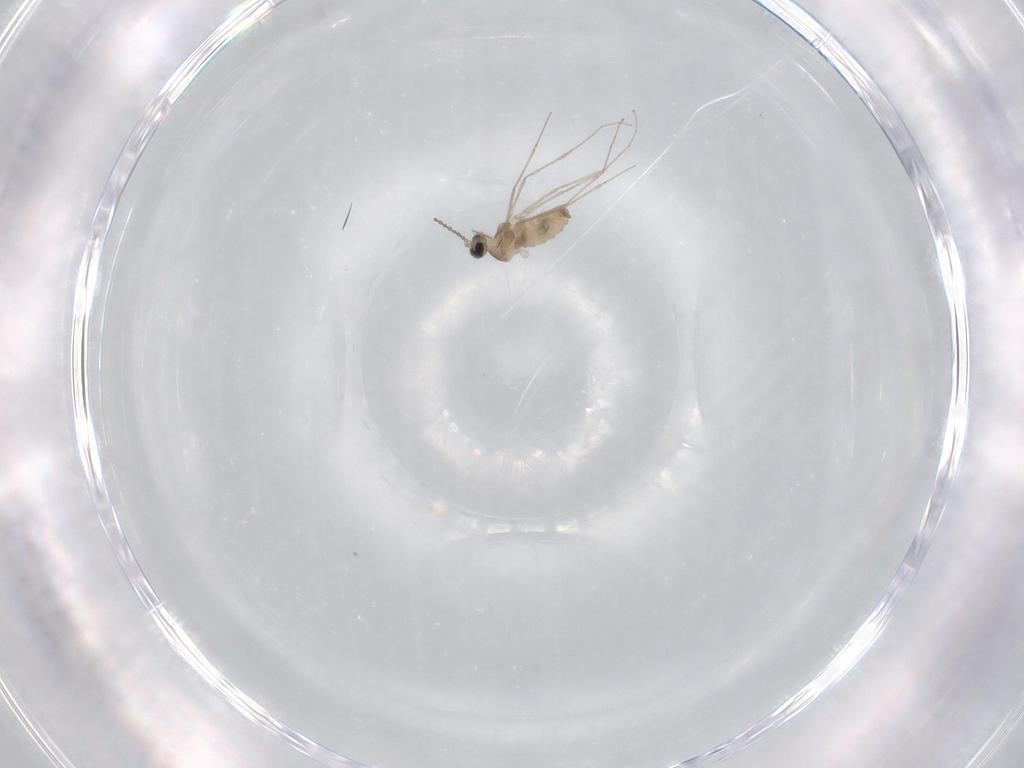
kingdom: Animalia
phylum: Arthropoda
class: Insecta
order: Diptera
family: Cecidomyiidae
